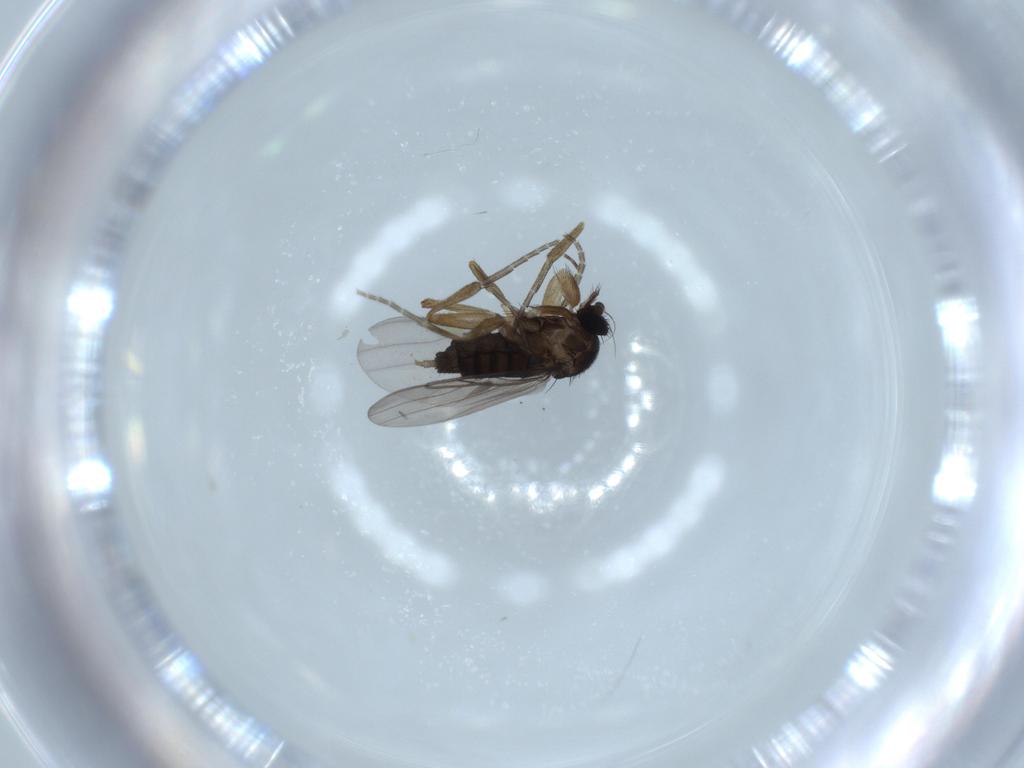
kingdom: Animalia
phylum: Arthropoda
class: Insecta
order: Diptera
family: Phoridae
